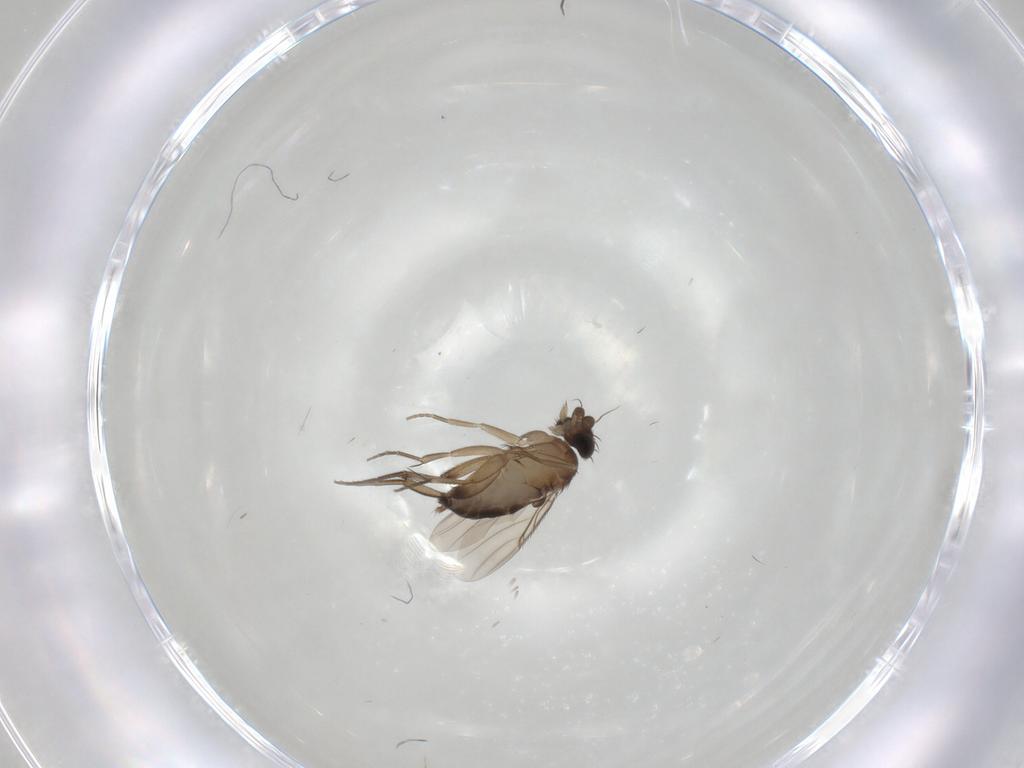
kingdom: Animalia
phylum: Arthropoda
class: Insecta
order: Diptera
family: Phoridae
